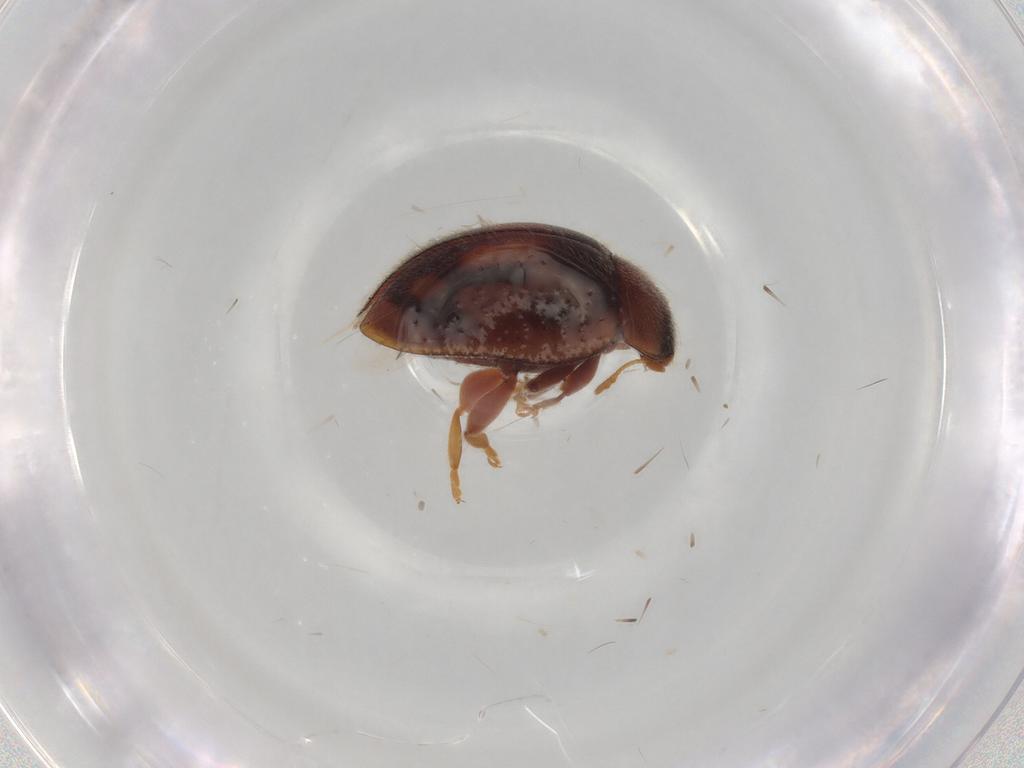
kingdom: Animalia
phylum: Arthropoda
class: Insecta
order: Coleoptera
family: Coccinellidae
